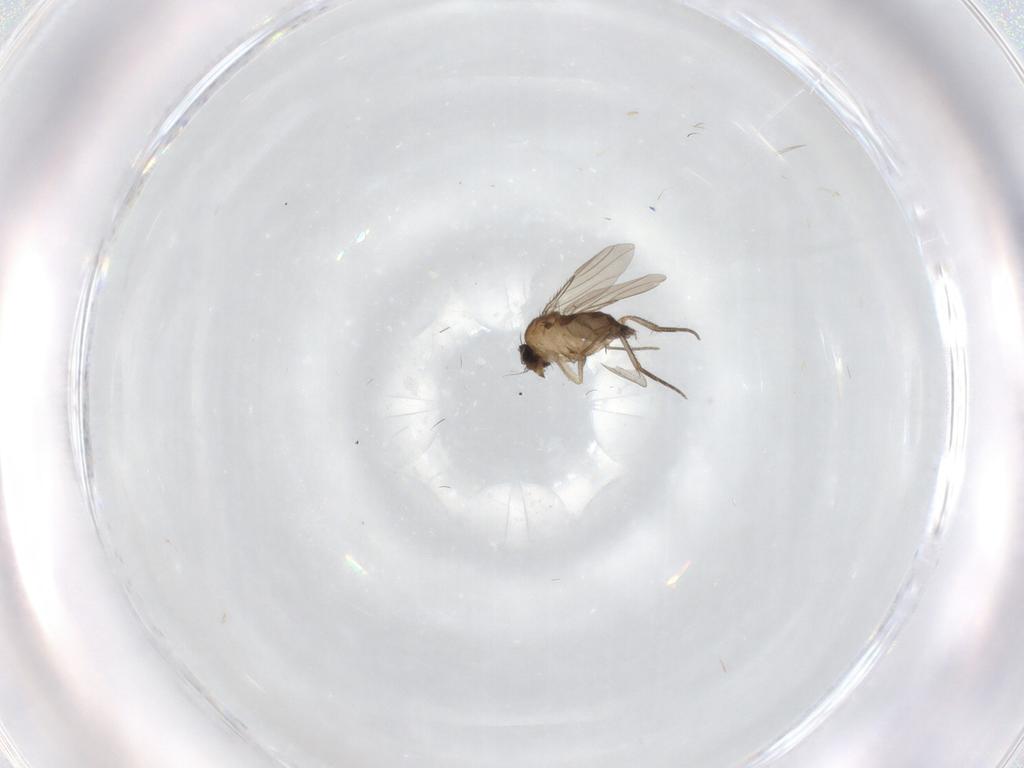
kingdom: Animalia
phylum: Arthropoda
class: Insecta
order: Diptera
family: Phoridae
